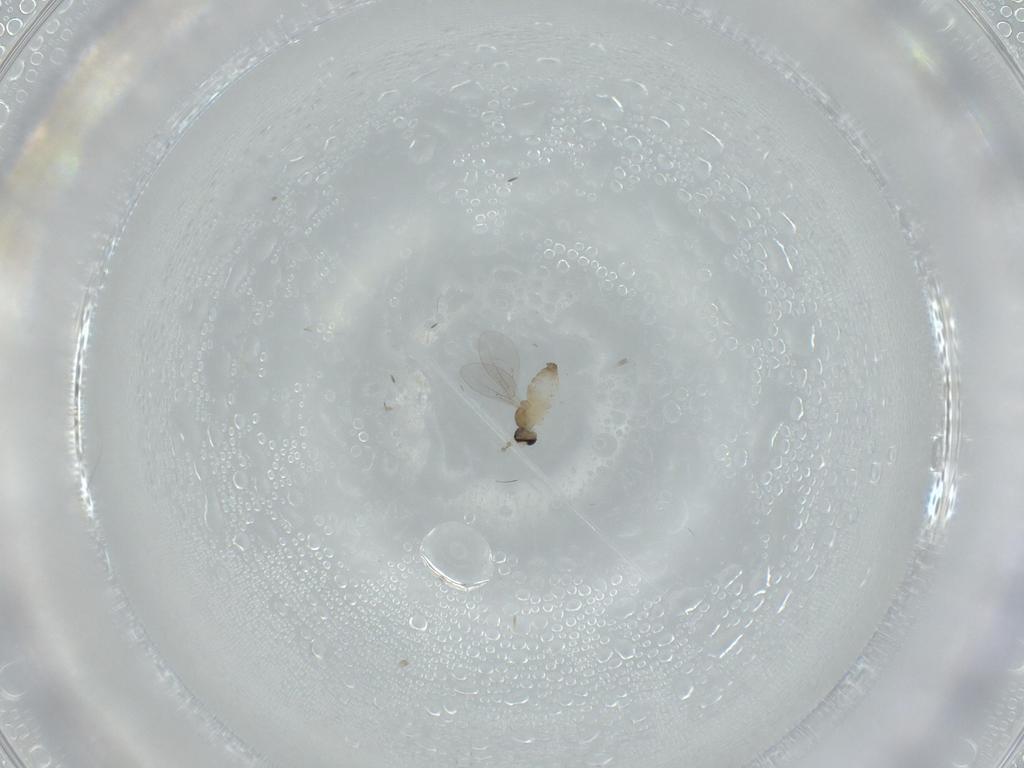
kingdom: Animalia
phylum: Arthropoda
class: Insecta
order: Diptera
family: Cecidomyiidae
